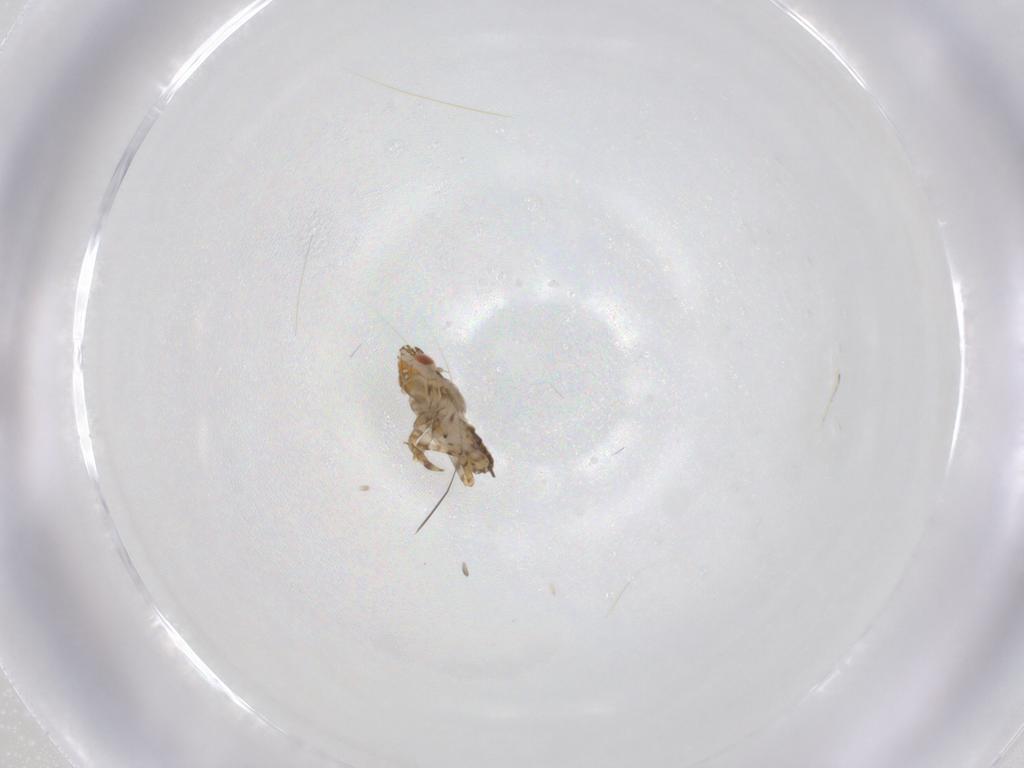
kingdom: Animalia
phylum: Arthropoda
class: Insecta
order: Hemiptera
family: Delphacidae
